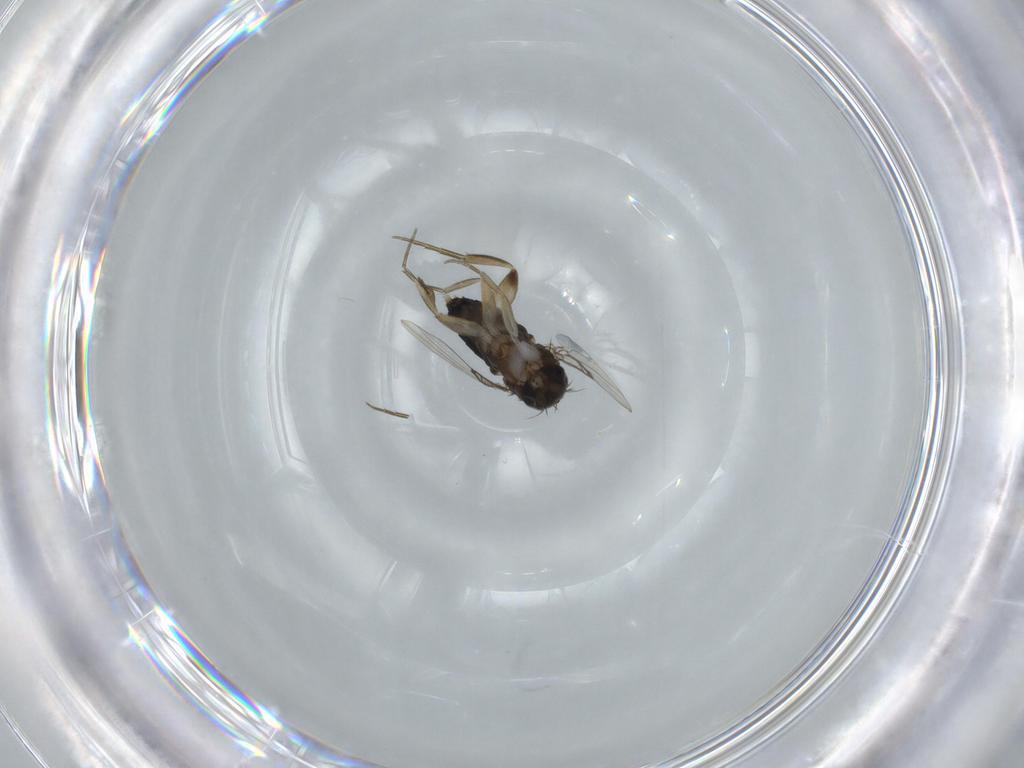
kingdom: Animalia
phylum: Arthropoda
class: Insecta
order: Diptera
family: Phoridae
